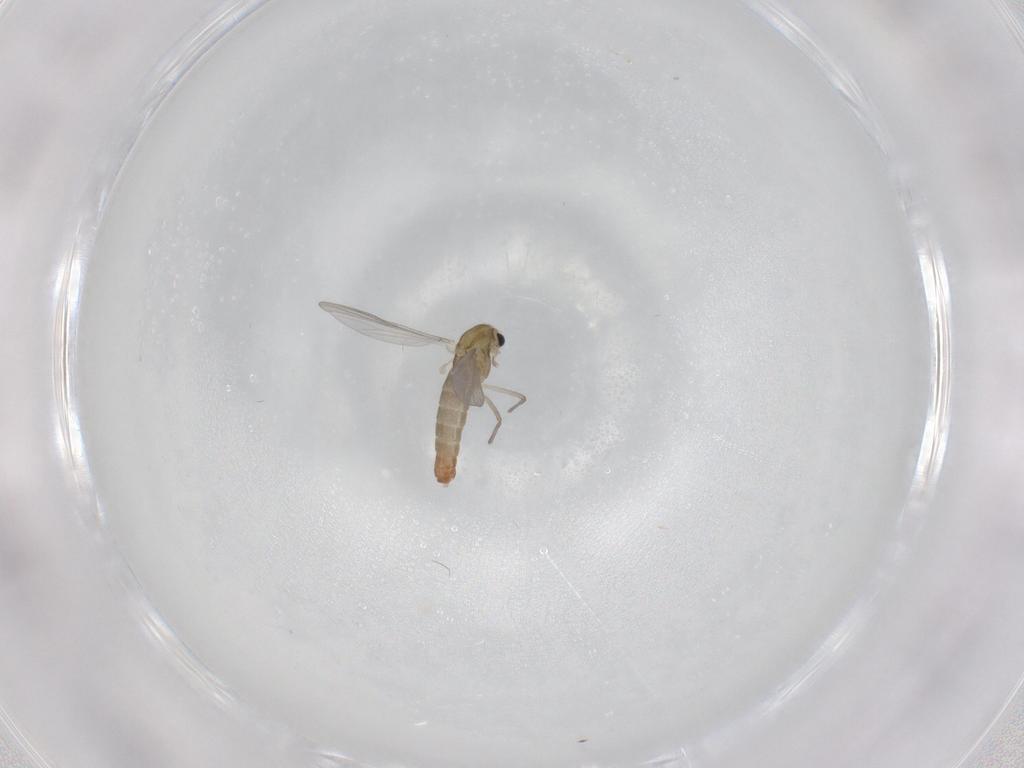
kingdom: Animalia
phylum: Arthropoda
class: Insecta
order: Diptera
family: Chironomidae
